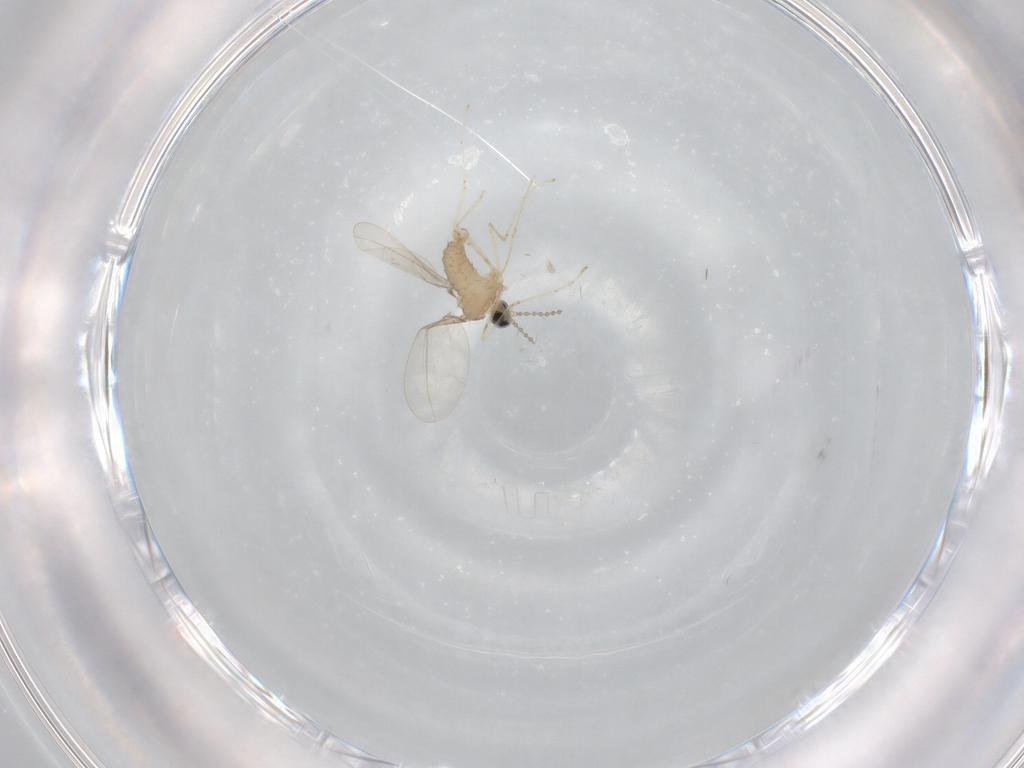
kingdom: Animalia
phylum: Arthropoda
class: Insecta
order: Diptera
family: Cecidomyiidae
